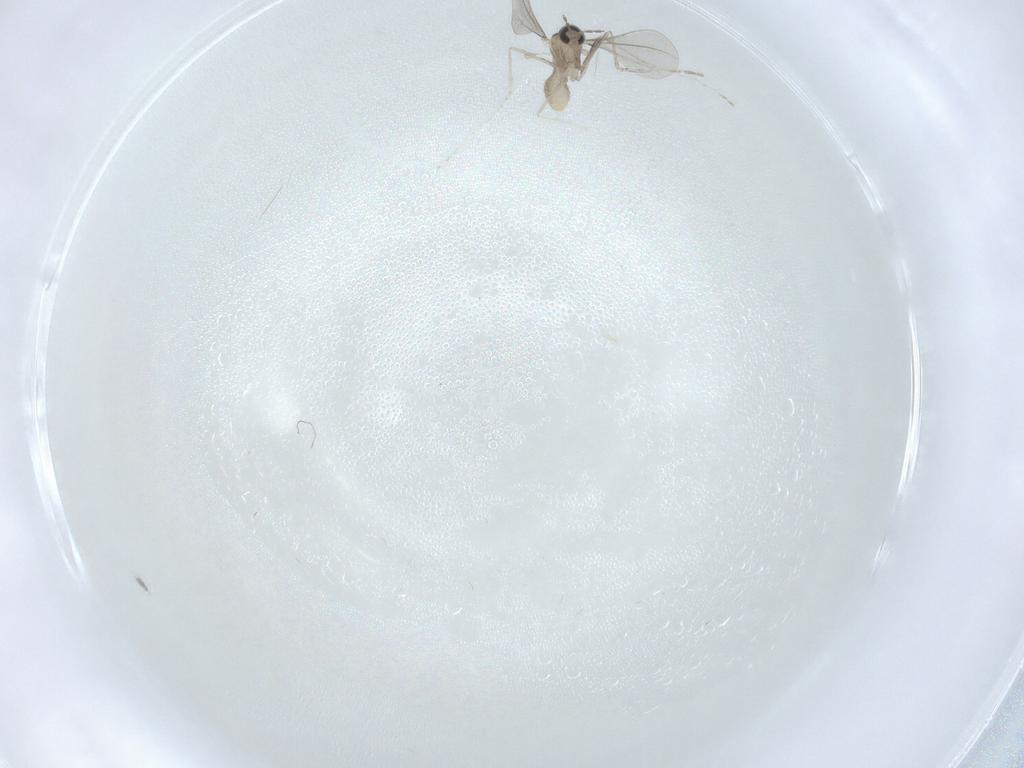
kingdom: Animalia
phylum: Arthropoda
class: Insecta
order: Diptera
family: Cecidomyiidae
